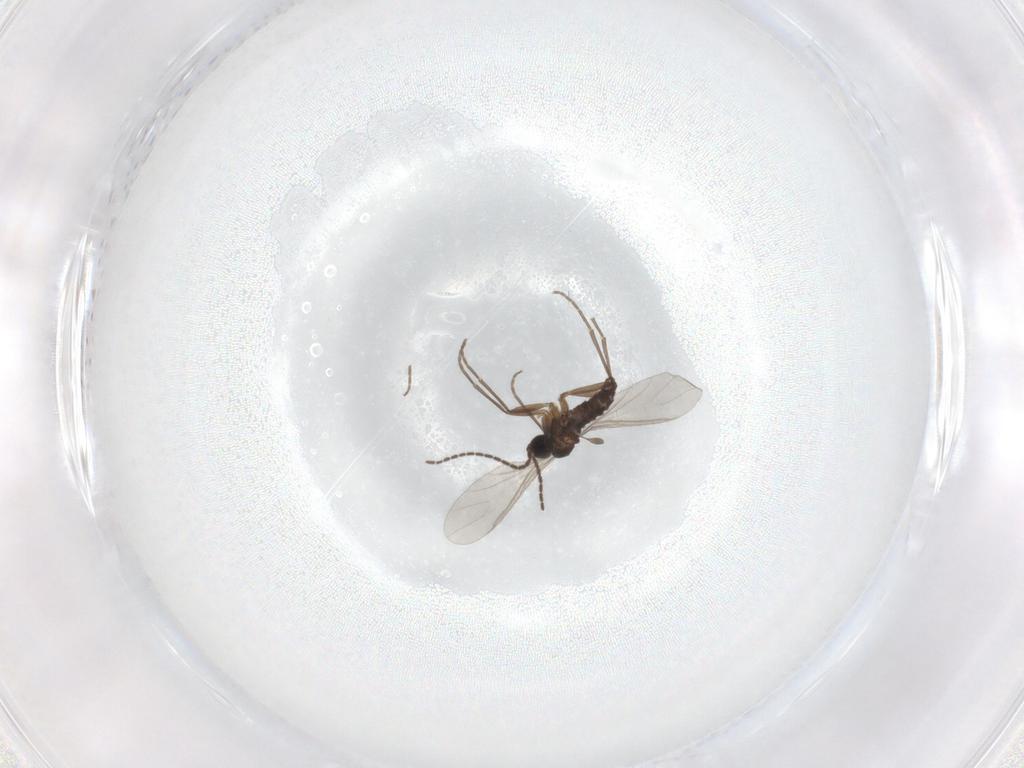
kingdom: Animalia
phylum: Arthropoda
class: Insecta
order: Diptera
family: Sciaridae
